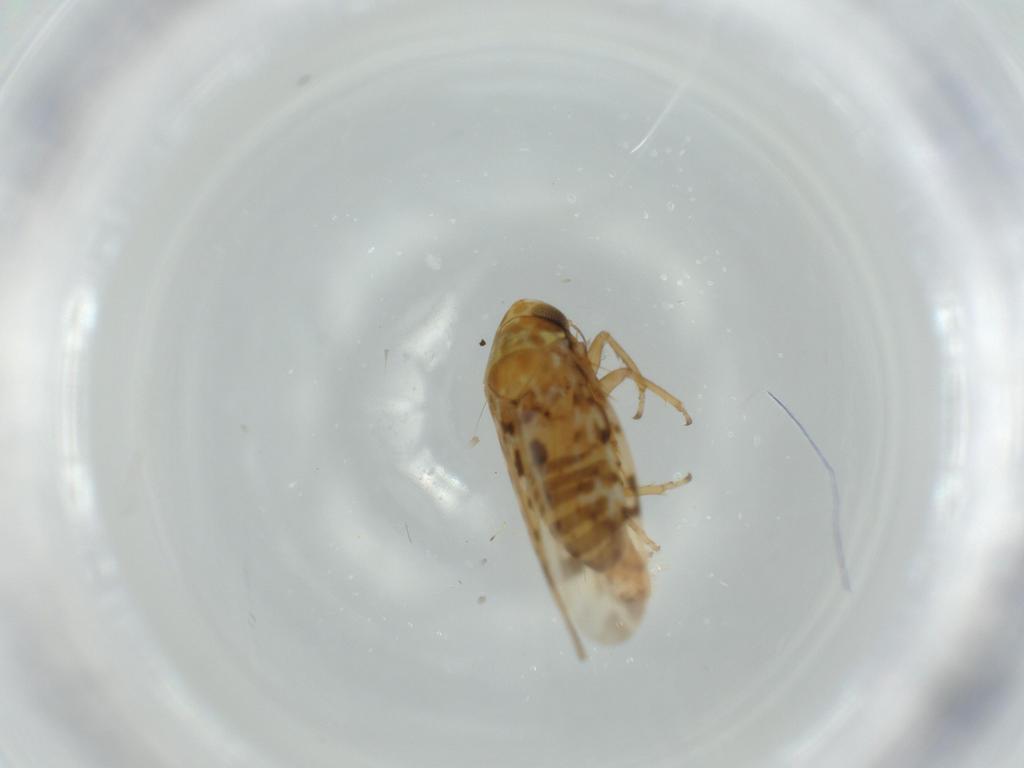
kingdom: Animalia
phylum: Arthropoda
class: Insecta
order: Hemiptera
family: Cicadellidae
